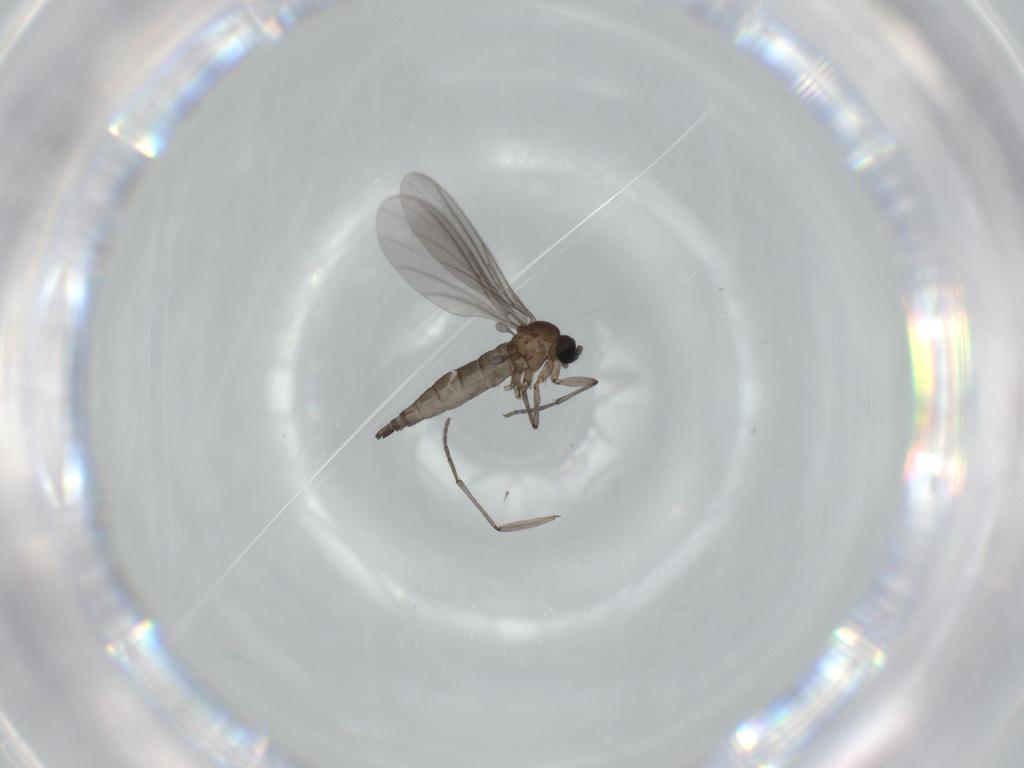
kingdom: Animalia
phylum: Arthropoda
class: Insecta
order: Diptera
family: Sciaridae
